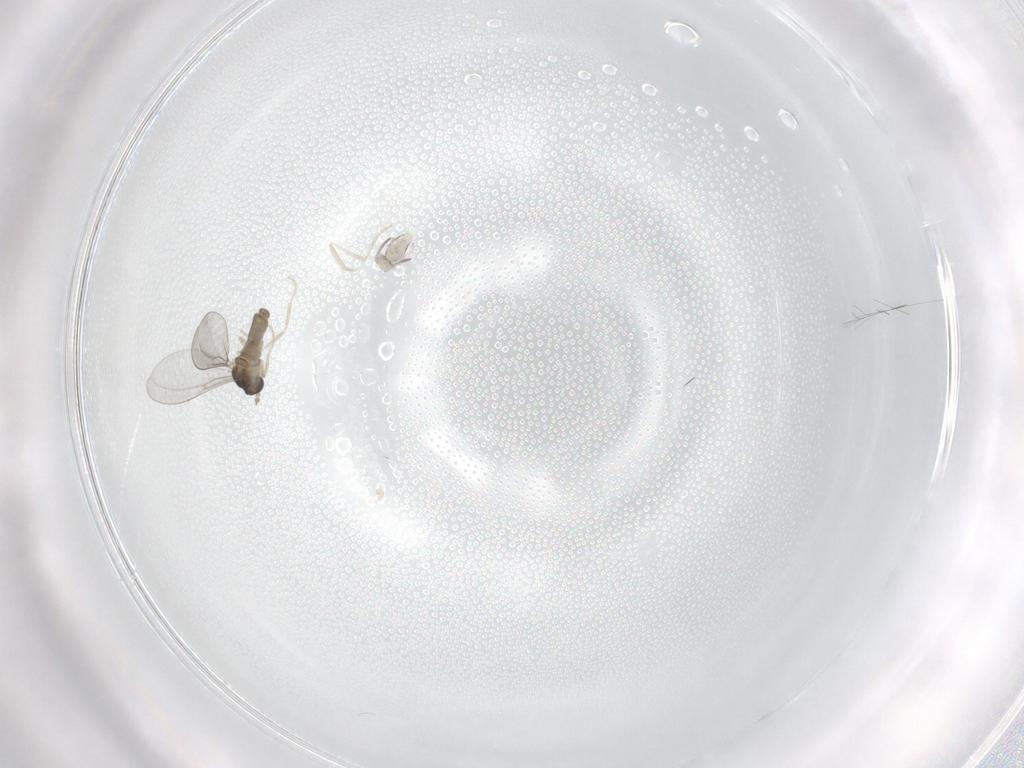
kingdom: Animalia
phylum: Arthropoda
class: Insecta
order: Diptera
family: Cecidomyiidae
